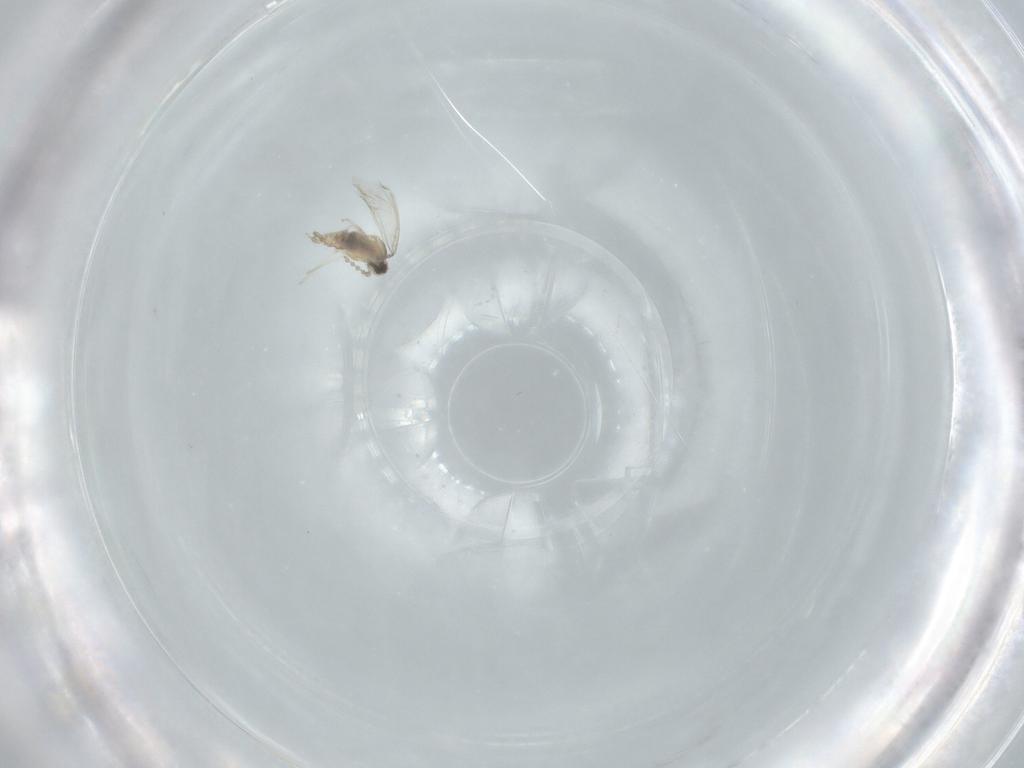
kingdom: Animalia
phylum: Arthropoda
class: Insecta
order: Diptera
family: Cecidomyiidae
